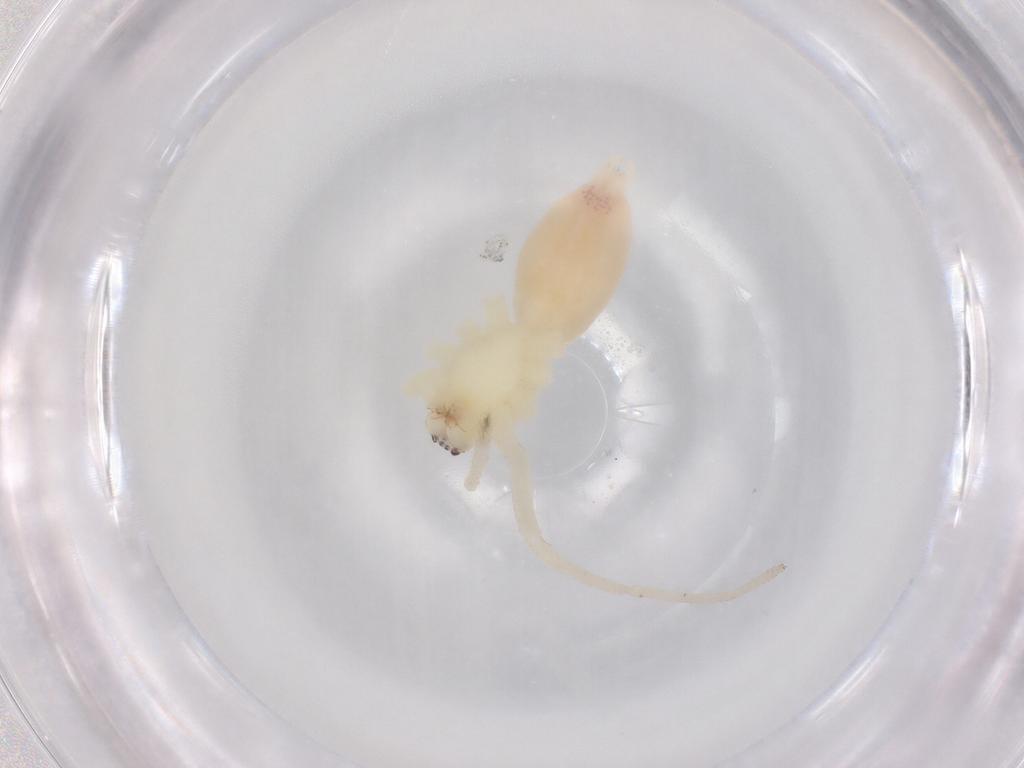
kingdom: Animalia
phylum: Arthropoda
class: Arachnida
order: Araneae
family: Anyphaenidae
